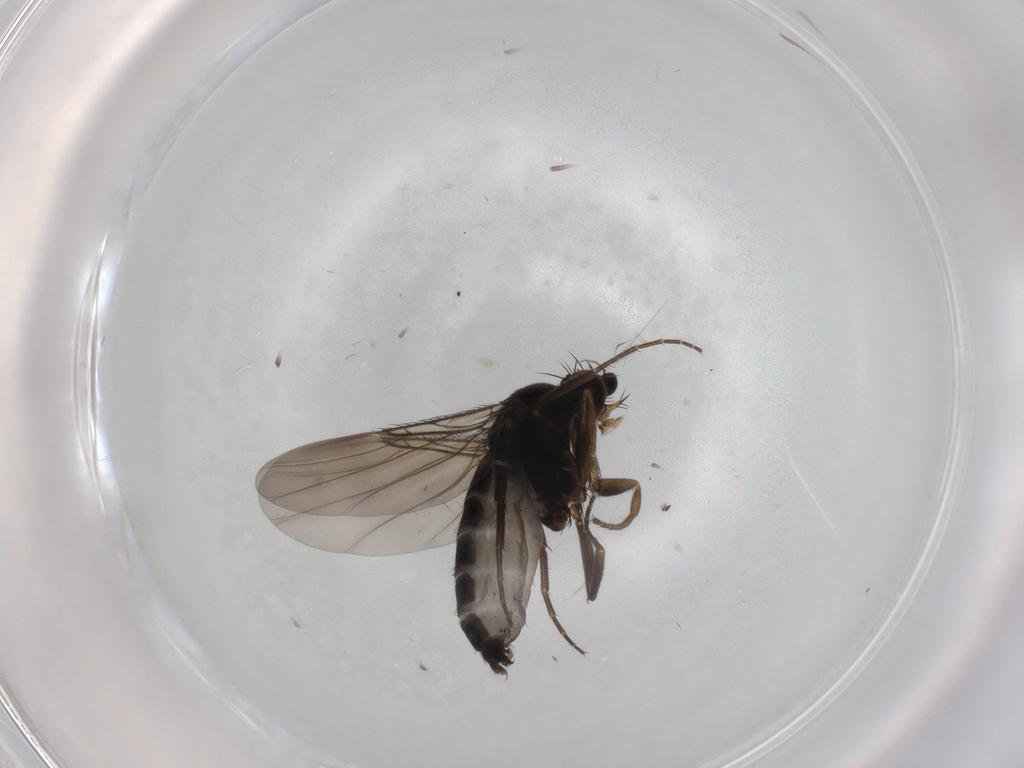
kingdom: Animalia
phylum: Arthropoda
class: Insecta
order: Diptera
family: Phoridae
